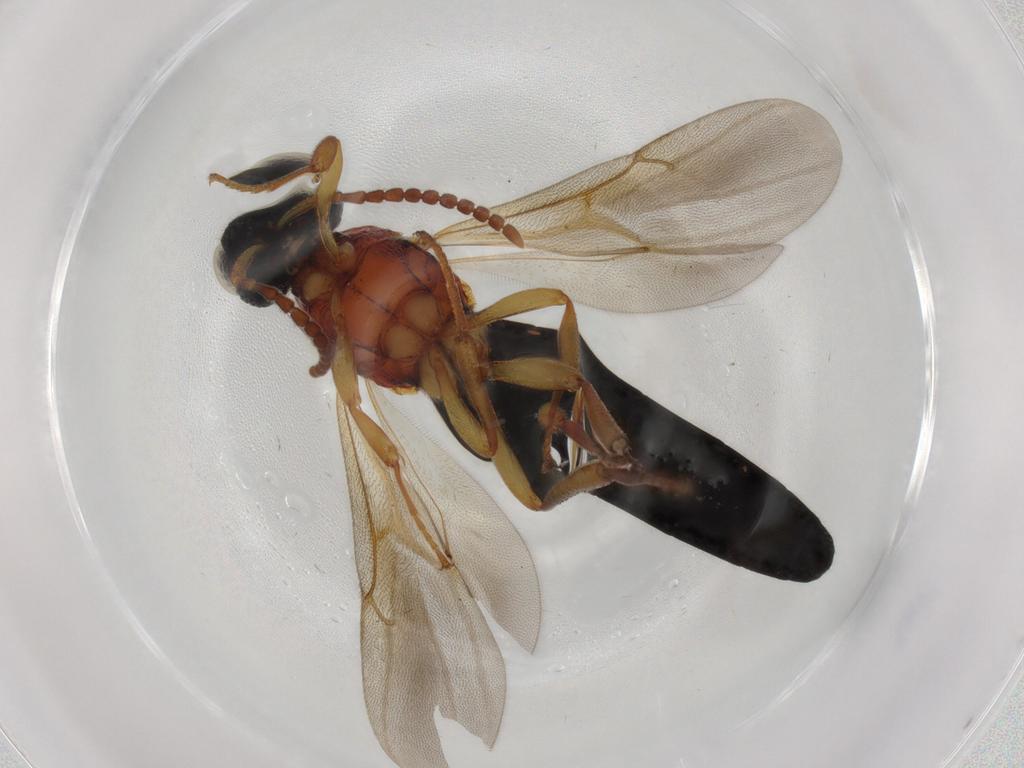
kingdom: Animalia
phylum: Arthropoda
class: Insecta
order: Hymenoptera
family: Scelionidae
